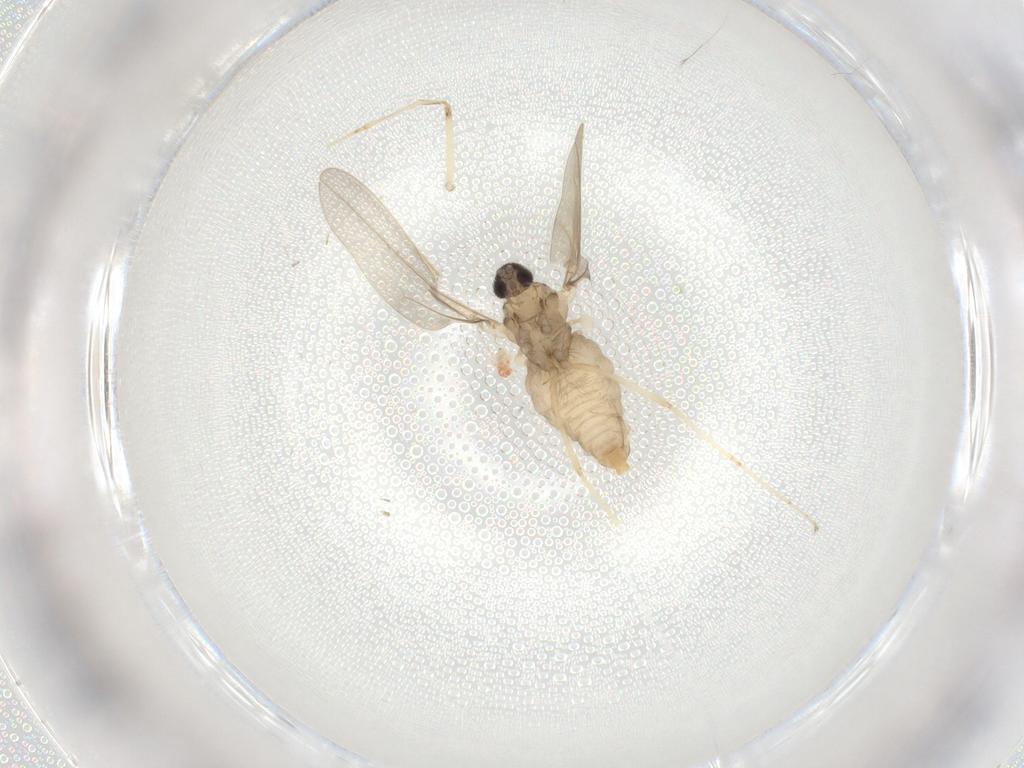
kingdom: Animalia
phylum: Arthropoda
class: Insecta
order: Diptera
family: Cecidomyiidae
